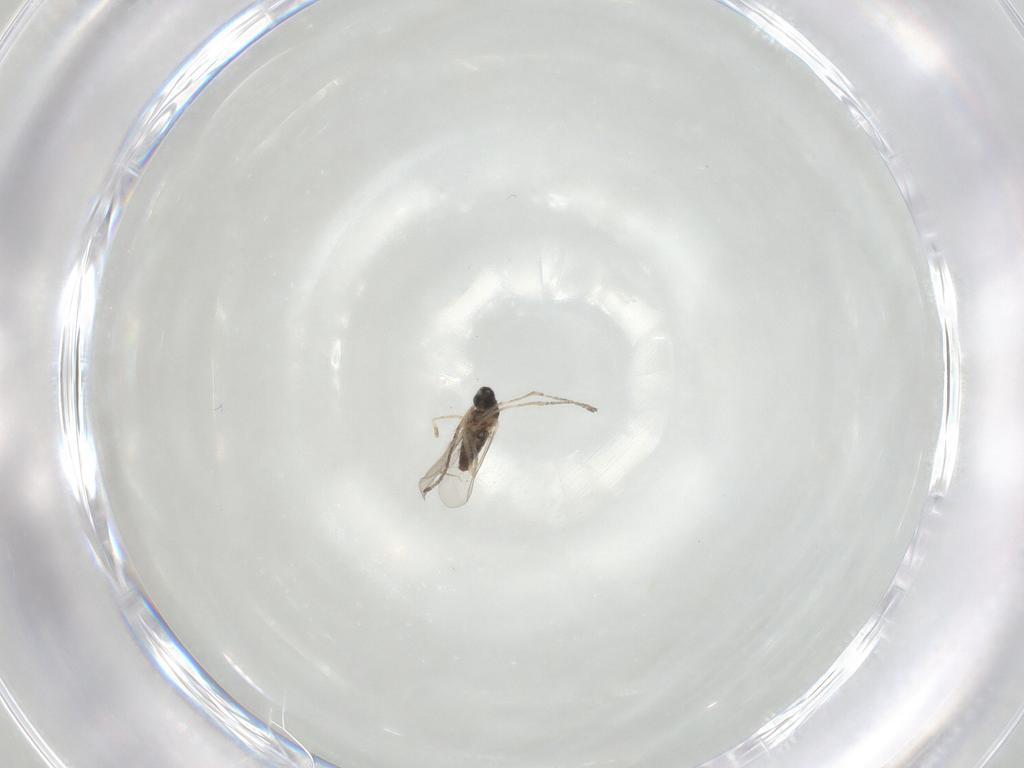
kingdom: Animalia
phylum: Arthropoda
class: Insecta
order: Diptera
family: Cecidomyiidae
